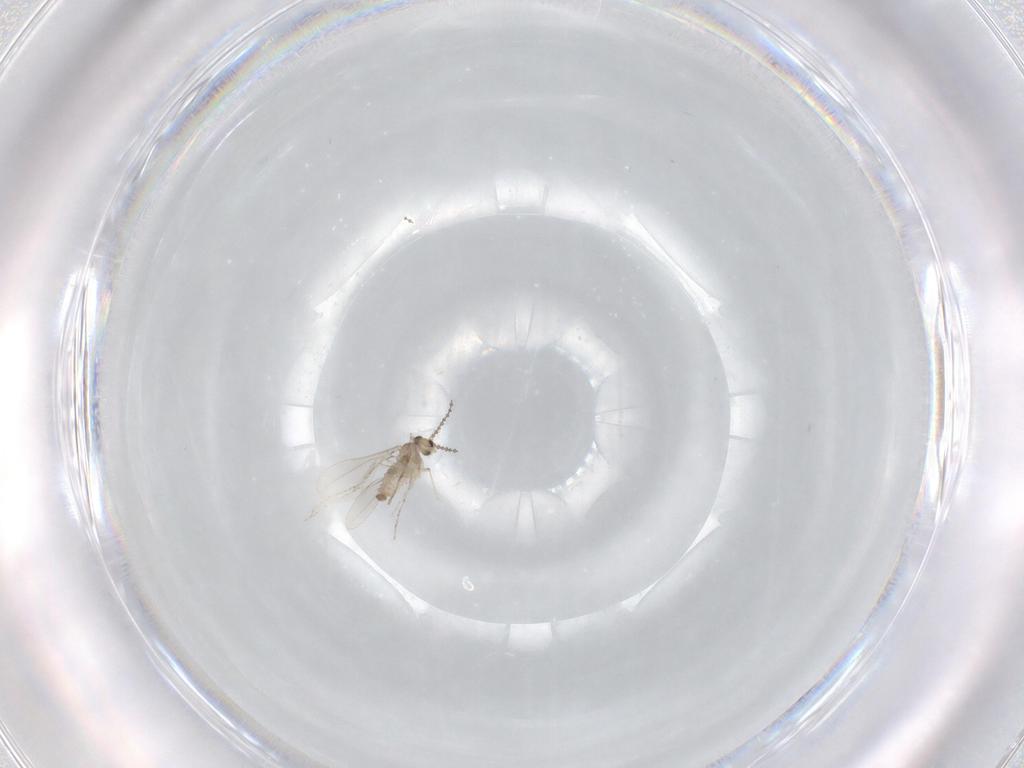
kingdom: Animalia
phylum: Arthropoda
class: Insecta
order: Diptera
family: Cecidomyiidae
